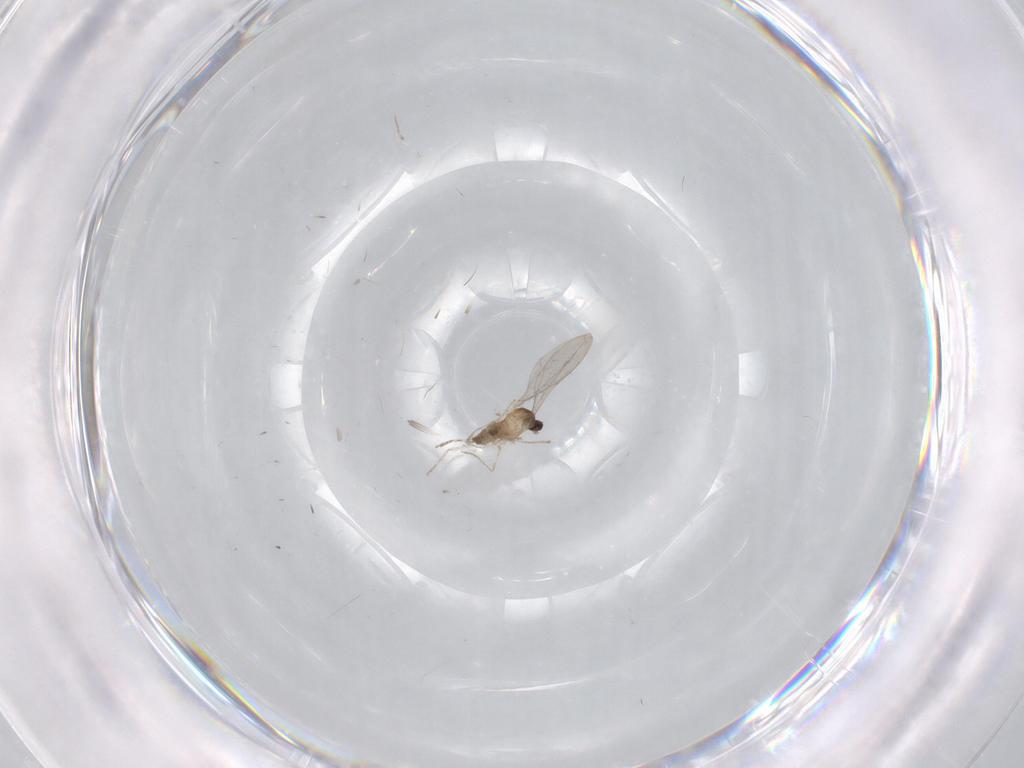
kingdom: Animalia
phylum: Arthropoda
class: Insecta
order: Diptera
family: Cecidomyiidae
